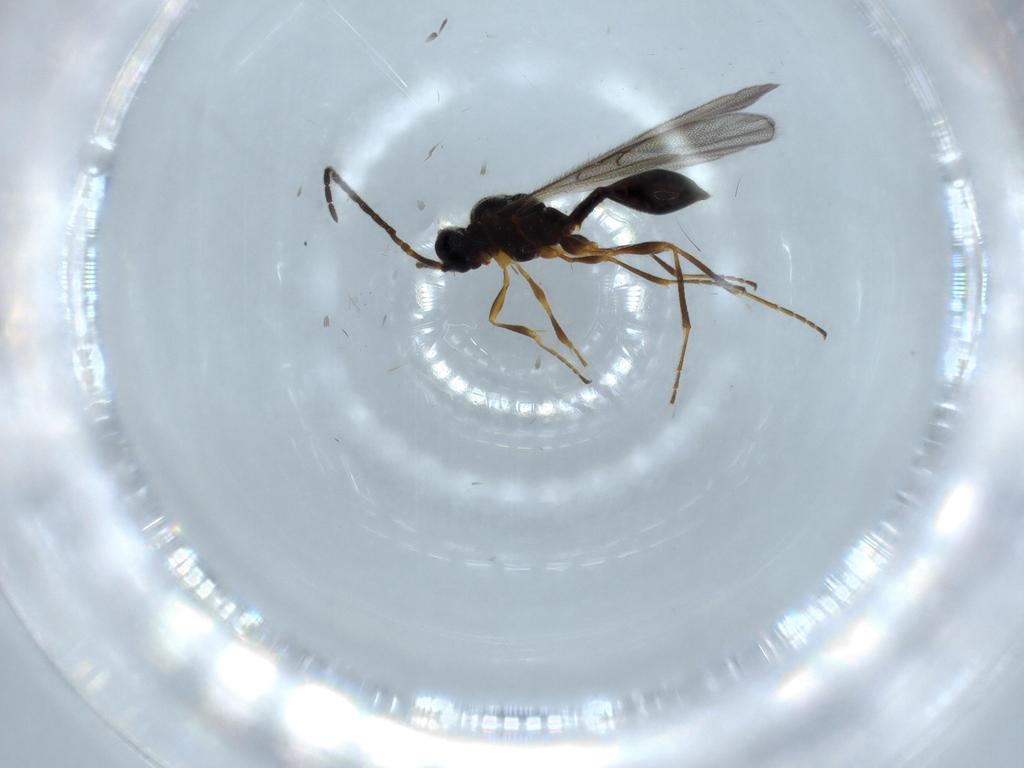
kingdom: Animalia
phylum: Arthropoda
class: Insecta
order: Hymenoptera
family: Diapriidae
